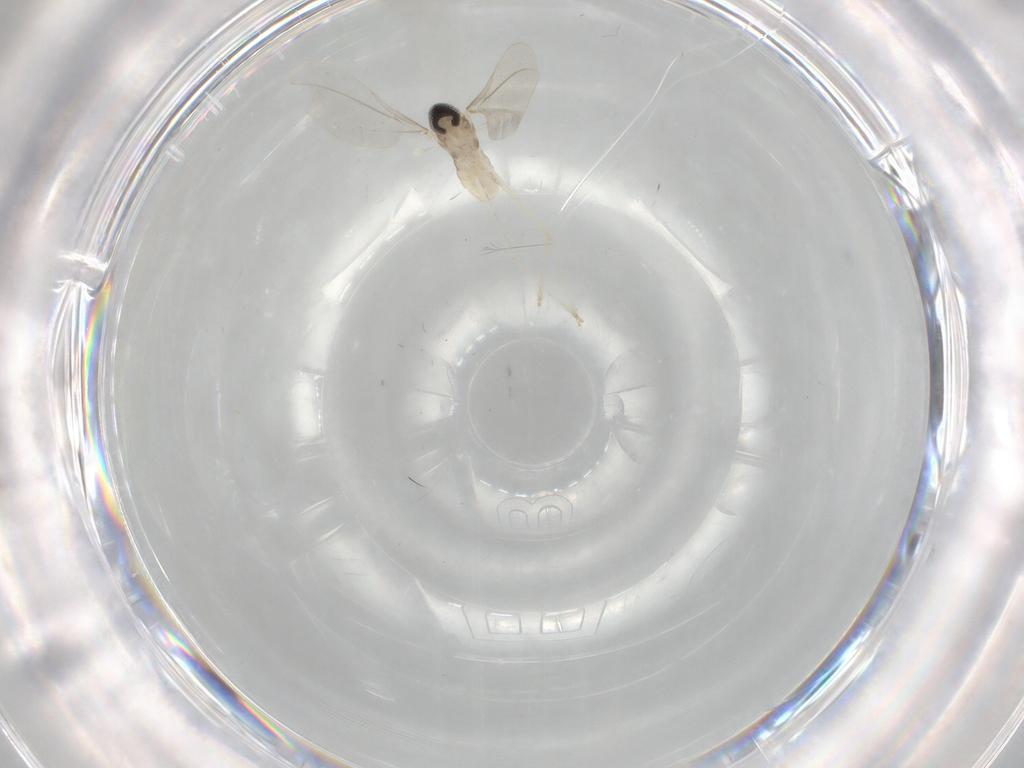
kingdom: Animalia
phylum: Arthropoda
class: Insecta
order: Diptera
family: Cecidomyiidae
